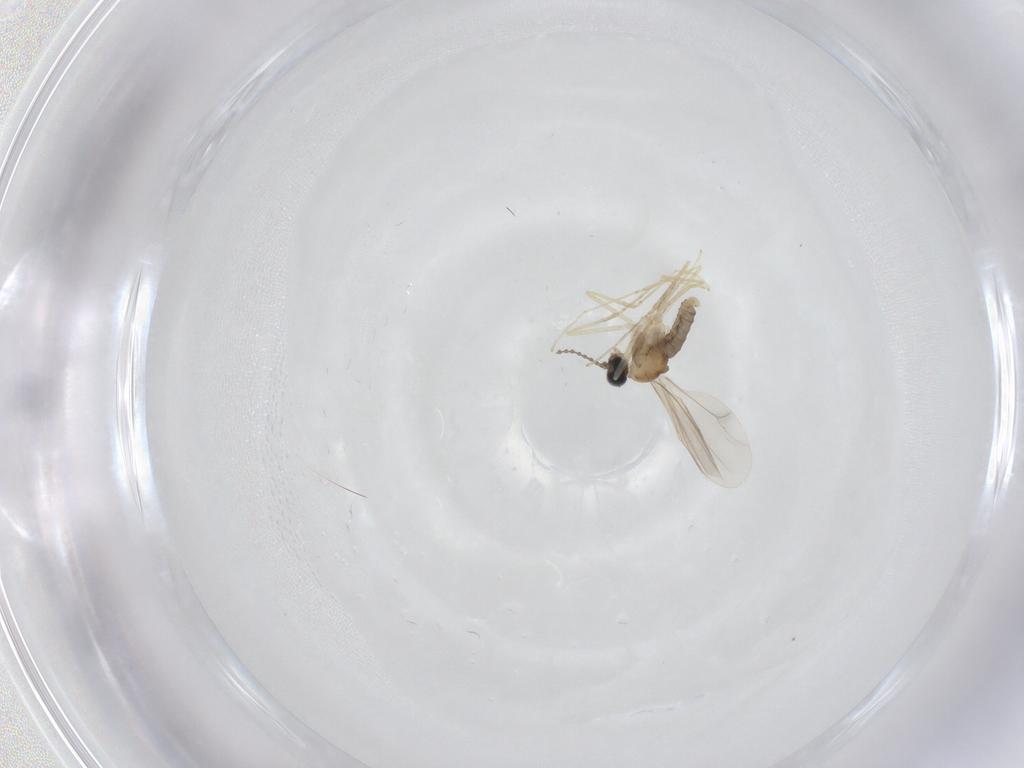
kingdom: Animalia
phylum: Arthropoda
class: Insecta
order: Diptera
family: Cecidomyiidae
